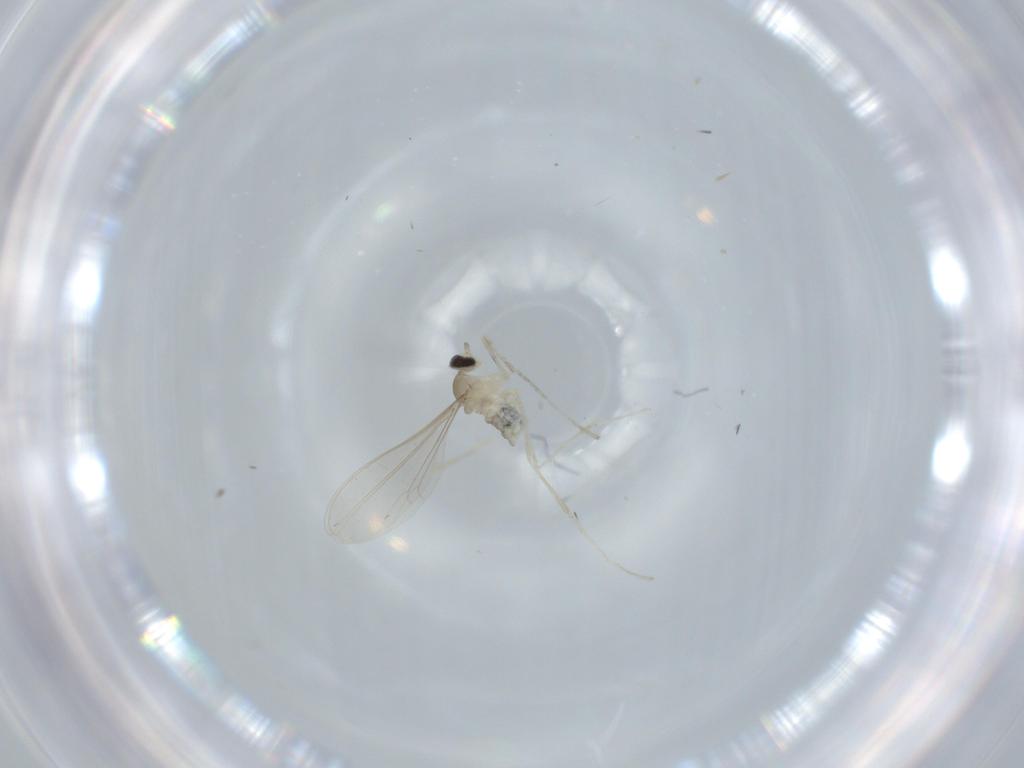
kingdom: Animalia
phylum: Arthropoda
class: Insecta
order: Diptera
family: Cecidomyiidae
